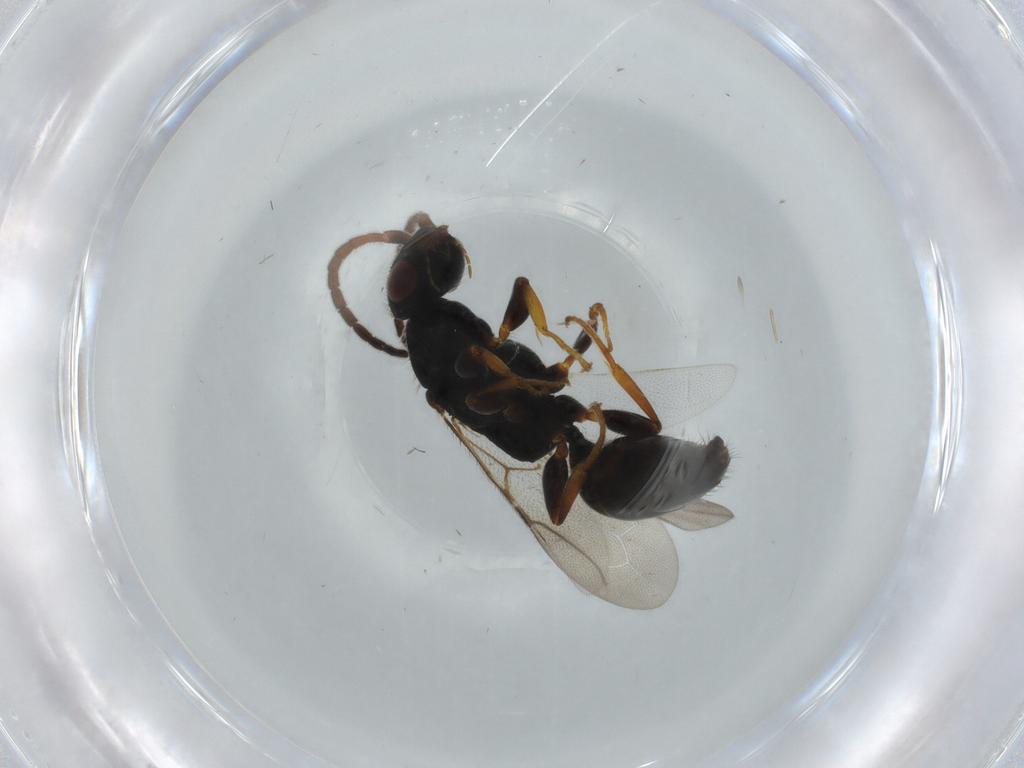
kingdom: Animalia
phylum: Arthropoda
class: Insecta
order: Hymenoptera
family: Bethylidae
